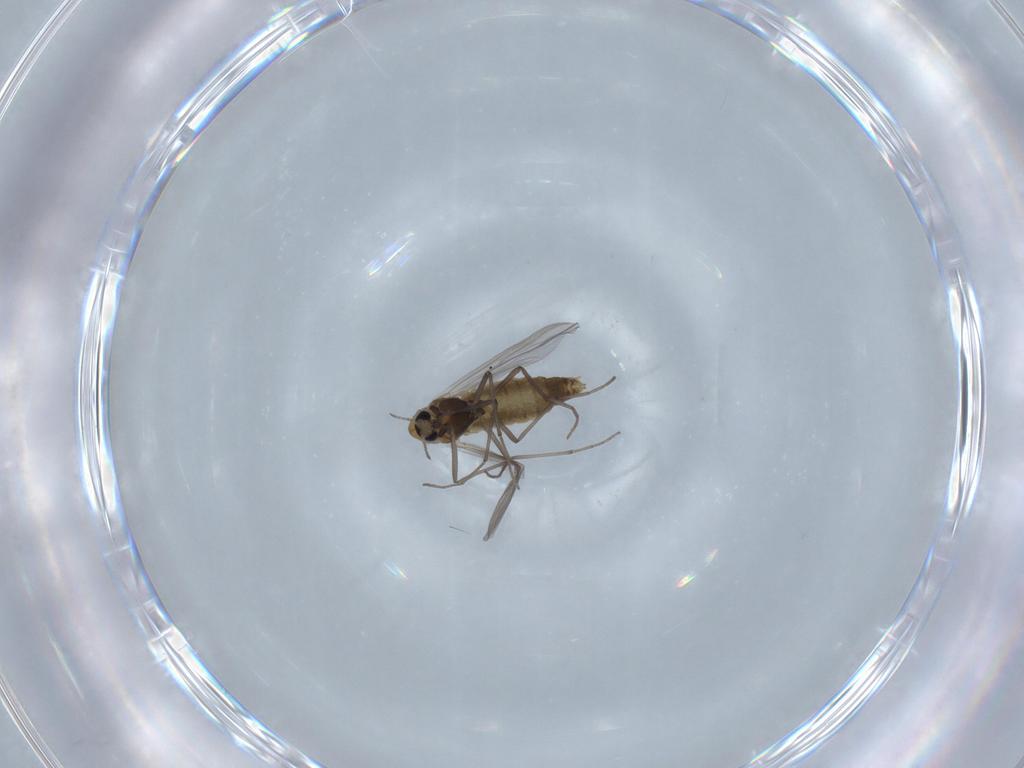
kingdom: Animalia
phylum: Arthropoda
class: Insecta
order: Diptera
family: Chironomidae
